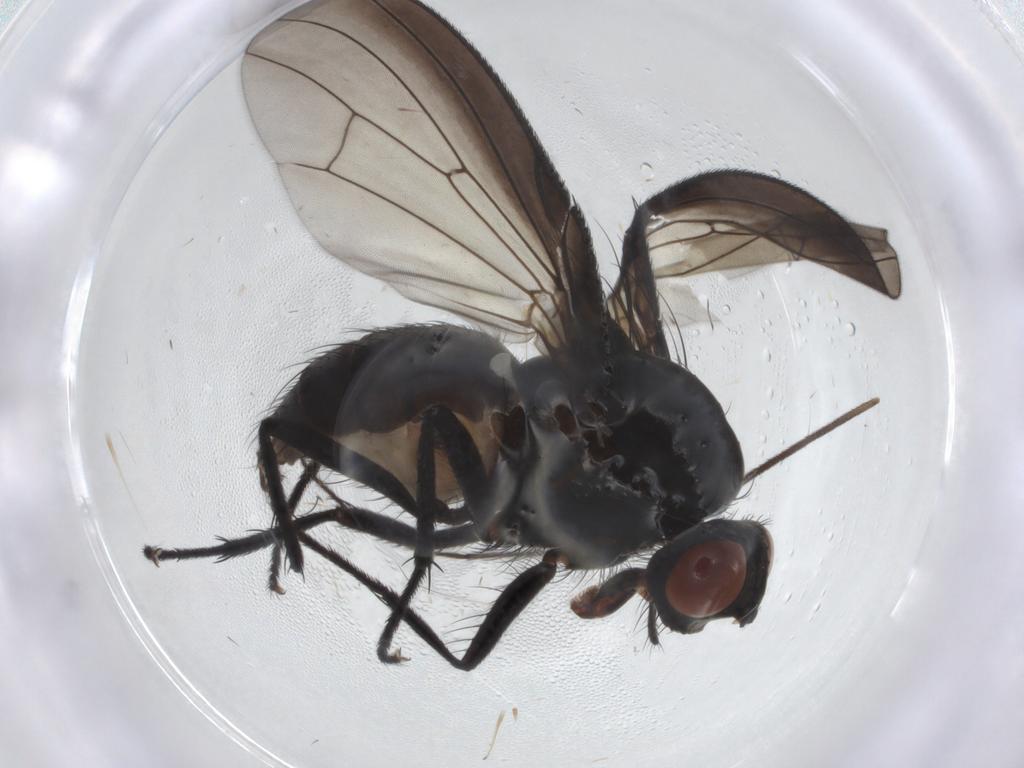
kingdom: Animalia
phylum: Arthropoda
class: Insecta
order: Diptera
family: Anthomyiidae
